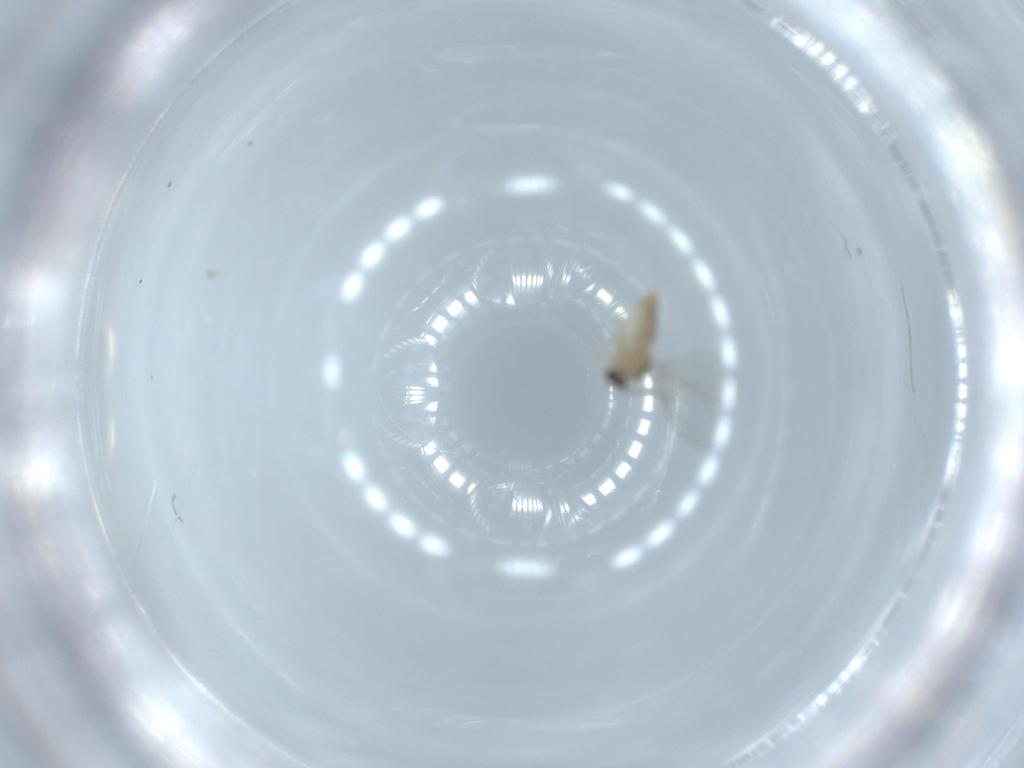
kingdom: Animalia
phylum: Arthropoda
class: Insecta
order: Diptera
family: Cecidomyiidae
